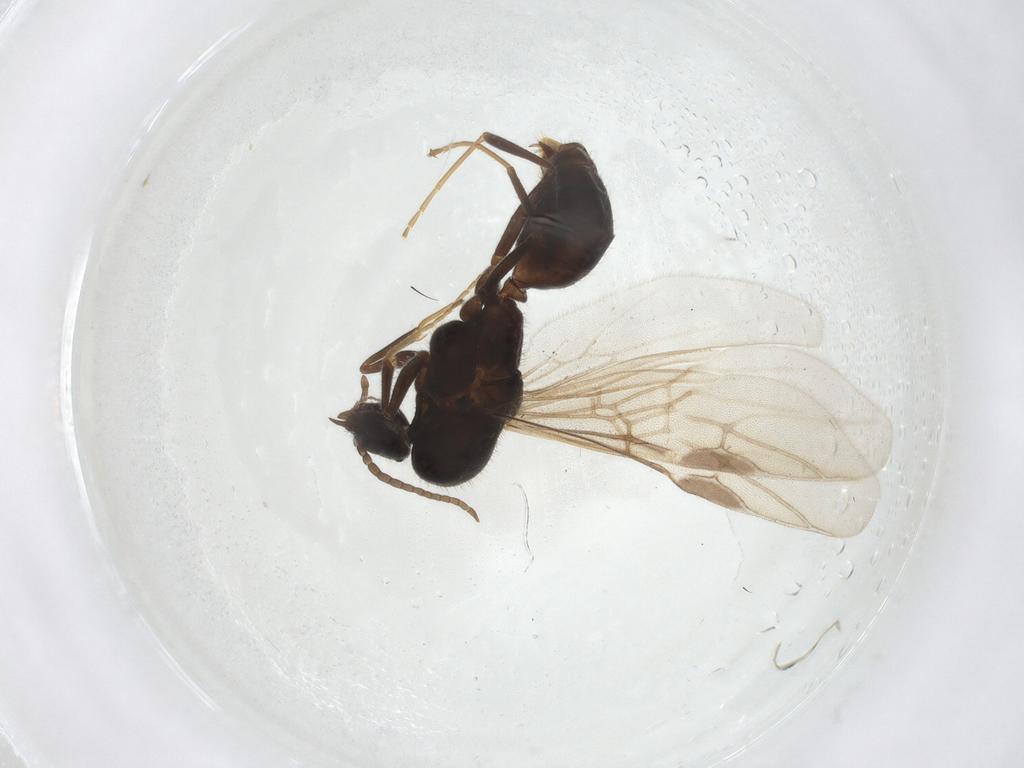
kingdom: Animalia
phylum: Arthropoda
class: Insecta
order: Hymenoptera
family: Formicidae
